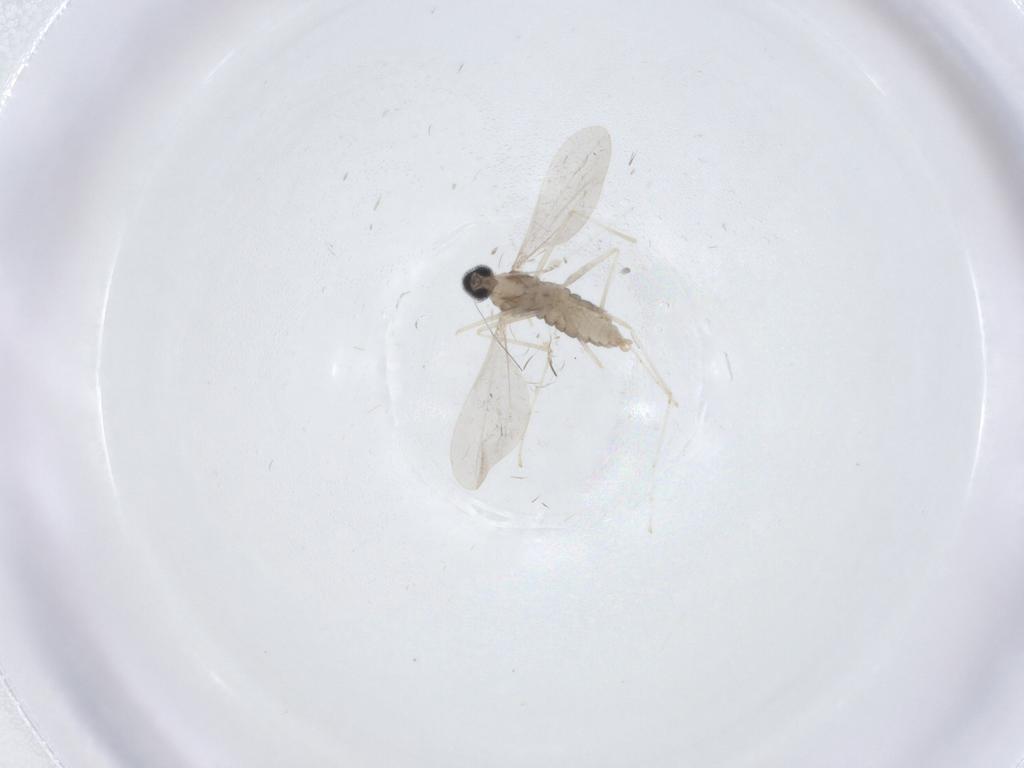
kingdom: Animalia
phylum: Arthropoda
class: Insecta
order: Diptera
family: Cecidomyiidae
